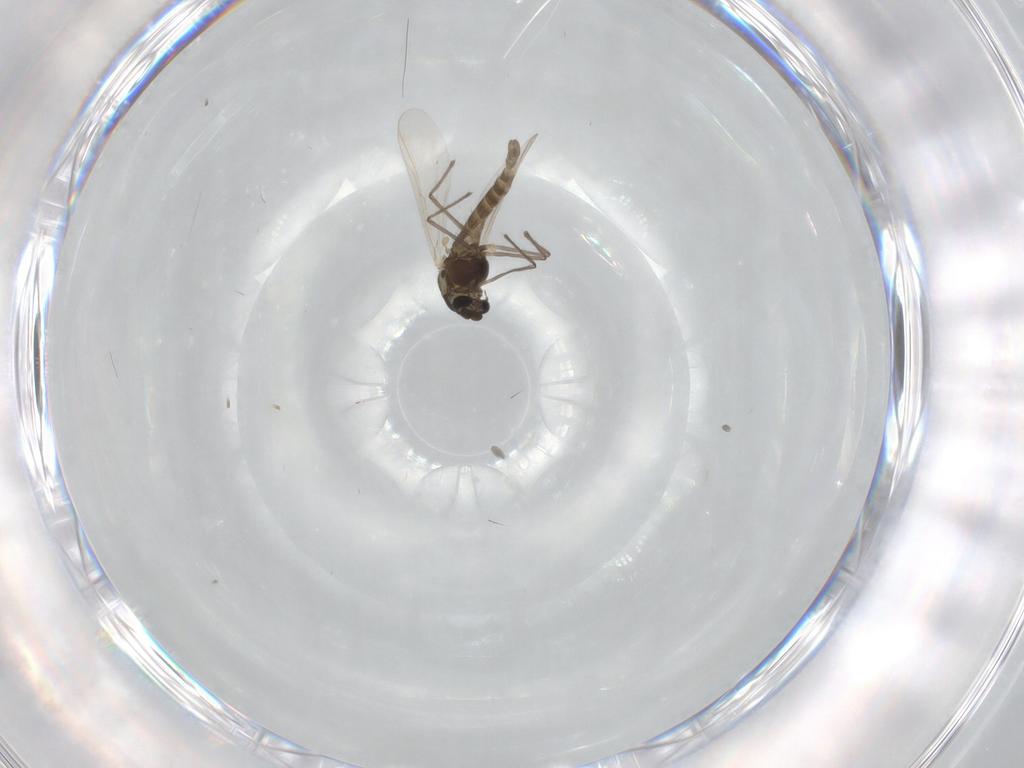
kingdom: Animalia
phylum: Arthropoda
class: Insecta
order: Diptera
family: Chironomidae
